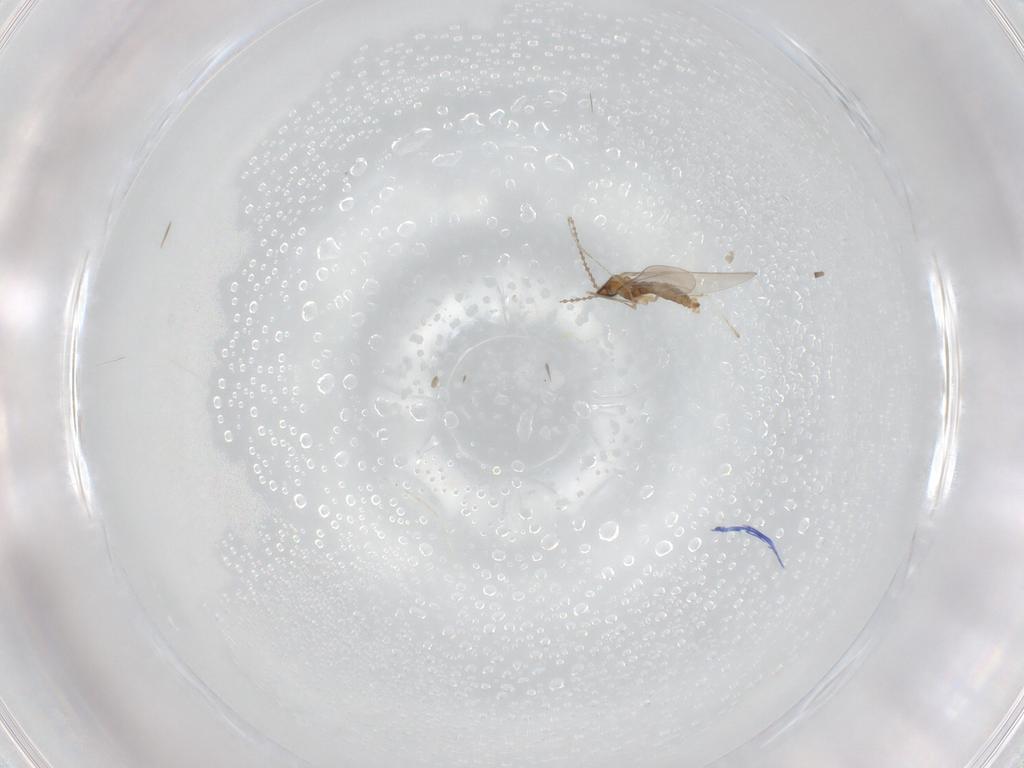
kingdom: Animalia
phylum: Arthropoda
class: Insecta
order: Diptera
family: Cecidomyiidae
